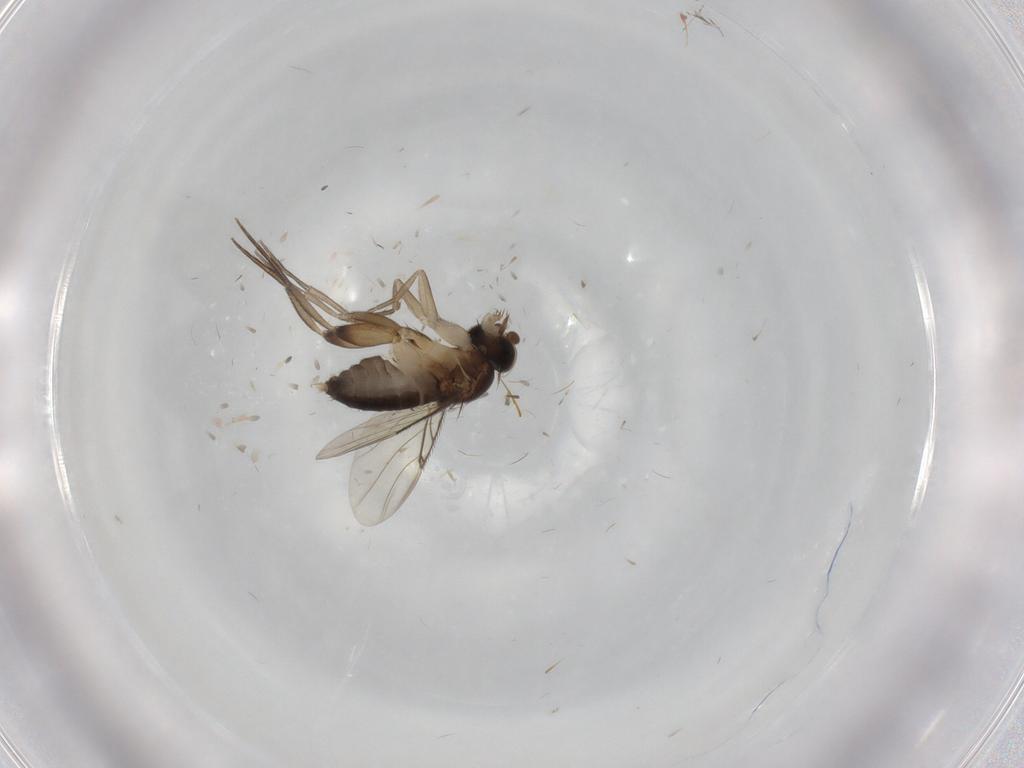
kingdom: Animalia
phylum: Arthropoda
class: Insecta
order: Diptera
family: Phoridae
